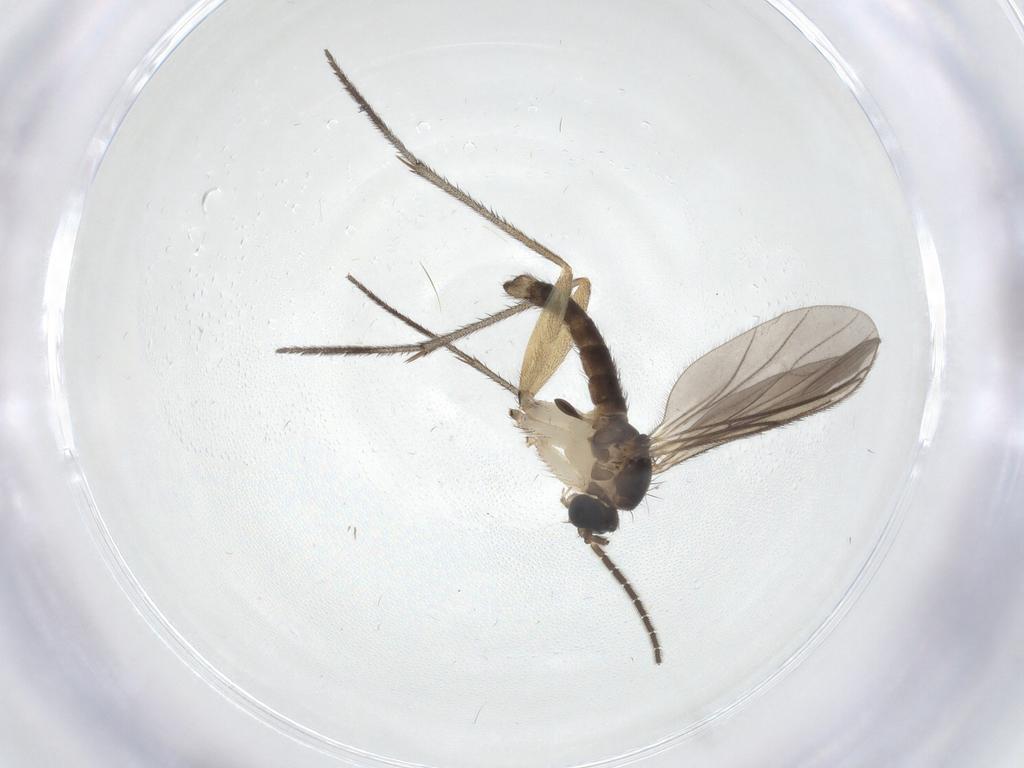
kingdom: Animalia
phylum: Arthropoda
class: Insecta
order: Diptera
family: Sciaridae
